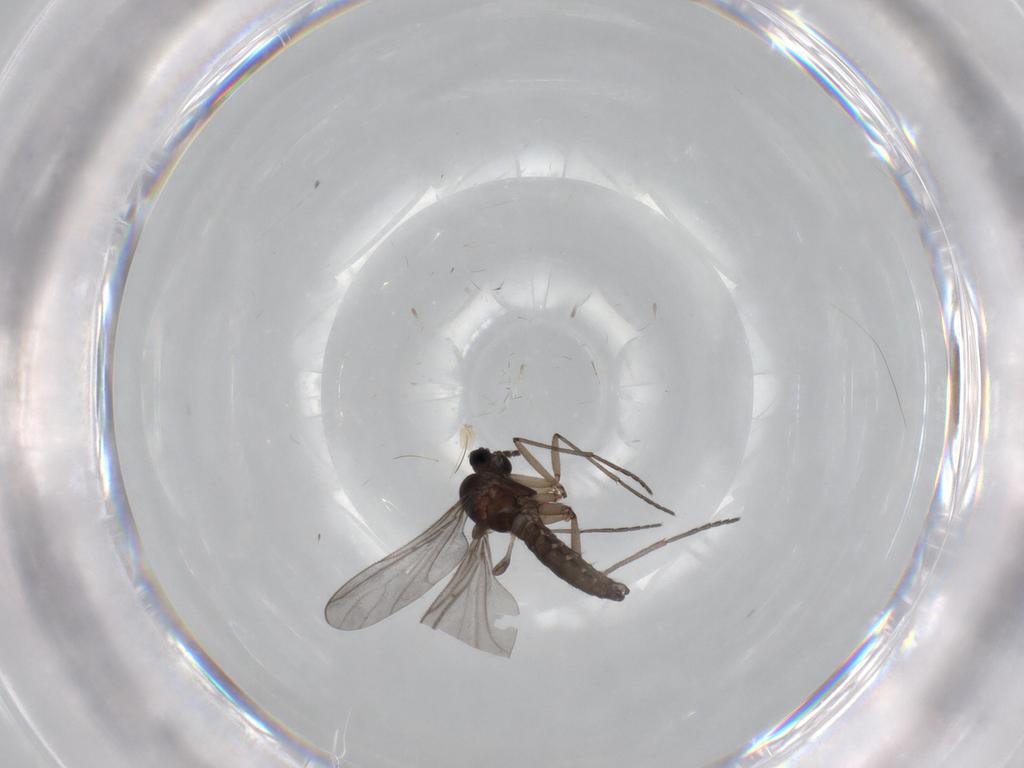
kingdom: Animalia
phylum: Arthropoda
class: Insecta
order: Diptera
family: Sciaridae
